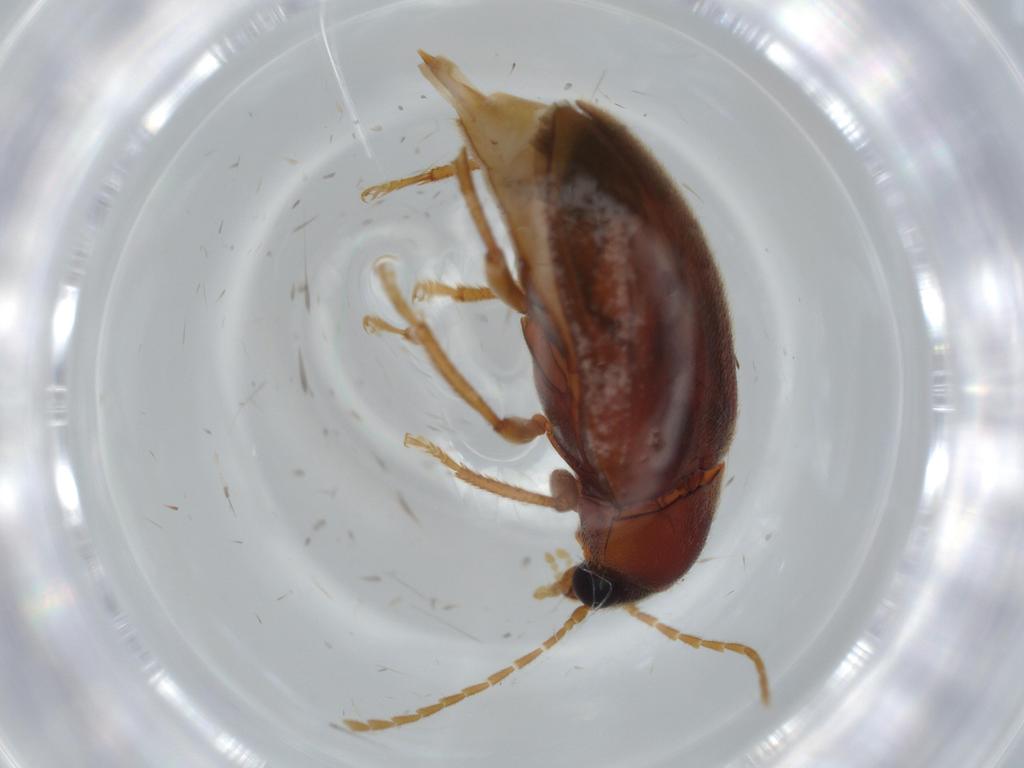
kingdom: Animalia
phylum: Arthropoda
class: Insecta
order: Coleoptera
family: Ptilodactylidae
